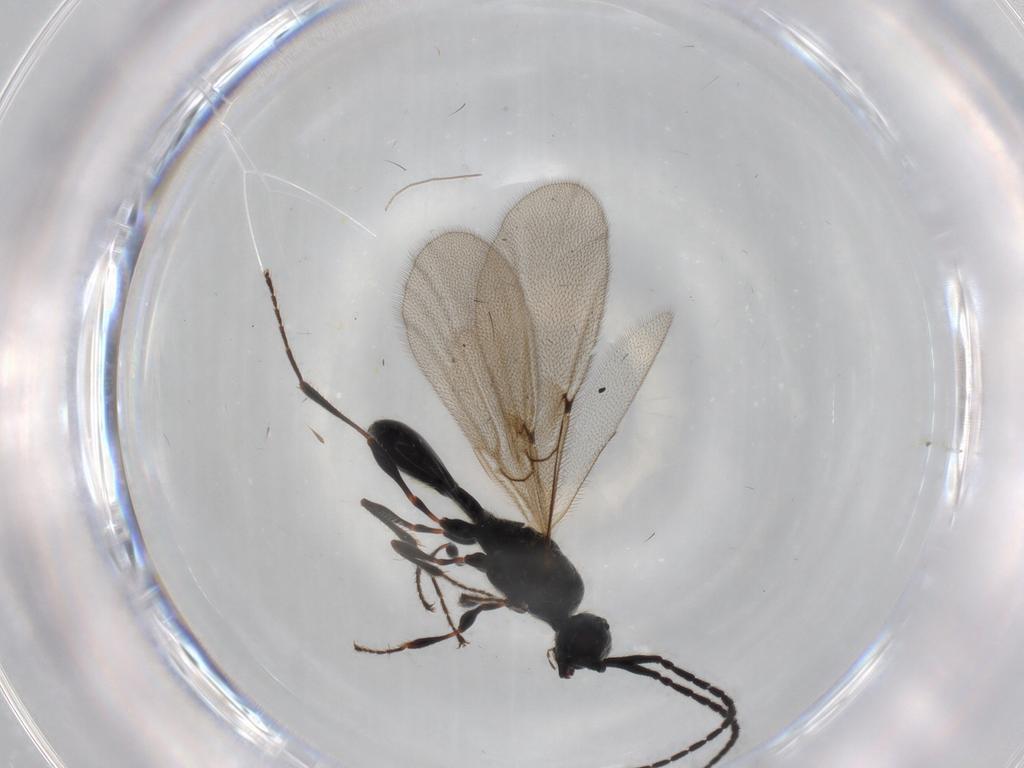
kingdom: Animalia
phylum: Arthropoda
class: Insecta
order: Hymenoptera
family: Diapriidae
